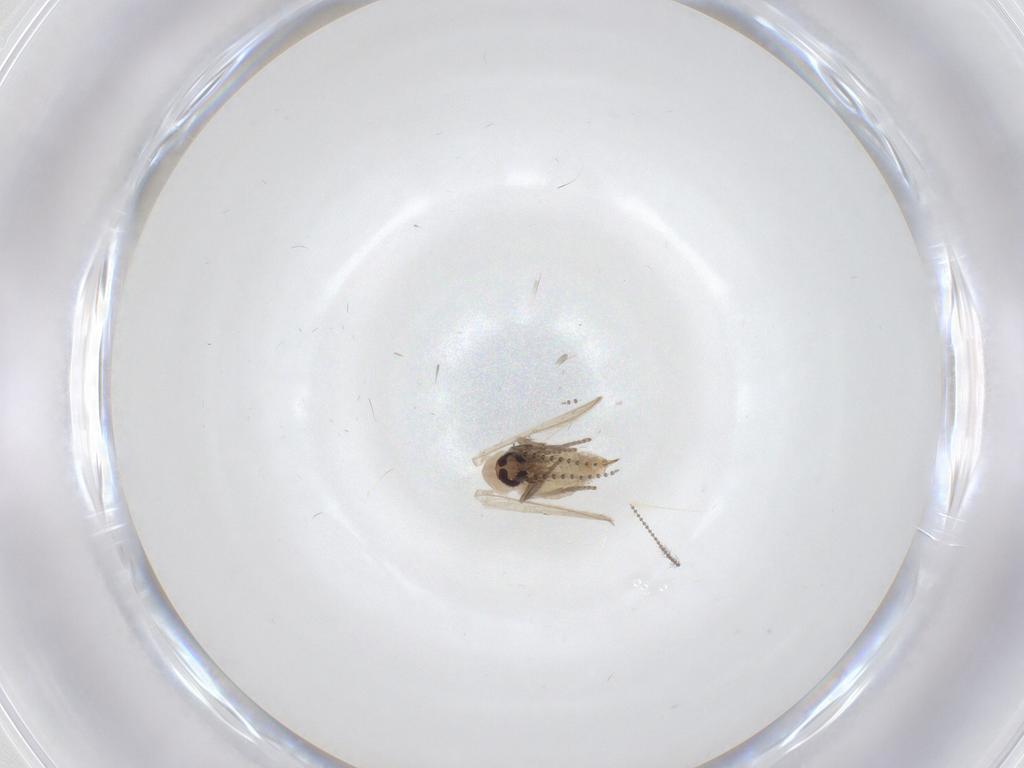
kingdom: Animalia
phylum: Arthropoda
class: Insecta
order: Diptera
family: Psychodidae
